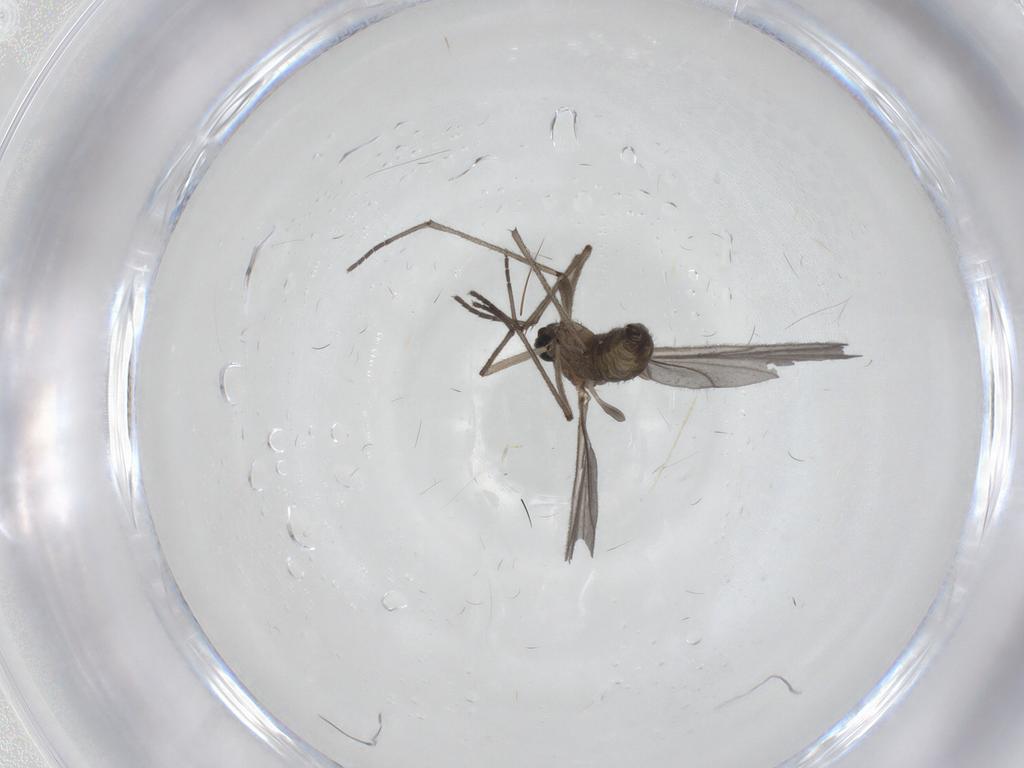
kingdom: Animalia
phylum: Arthropoda
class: Insecta
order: Diptera
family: Sciaridae
